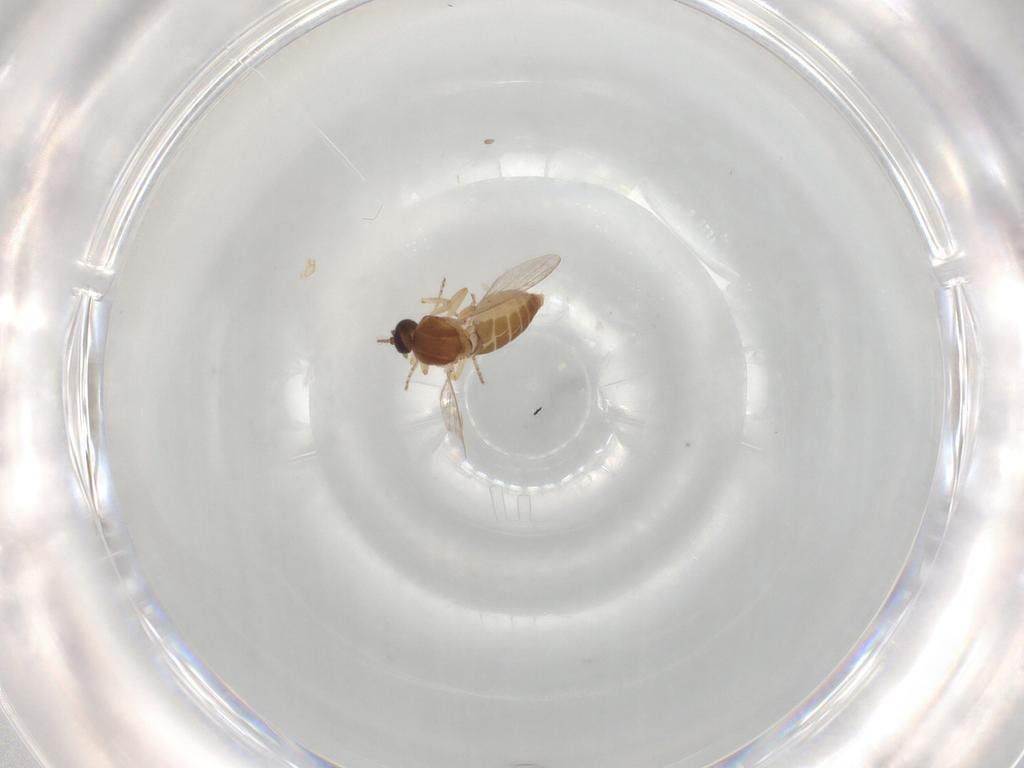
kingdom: Animalia
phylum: Arthropoda
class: Insecta
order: Diptera
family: Ceratopogonidae
